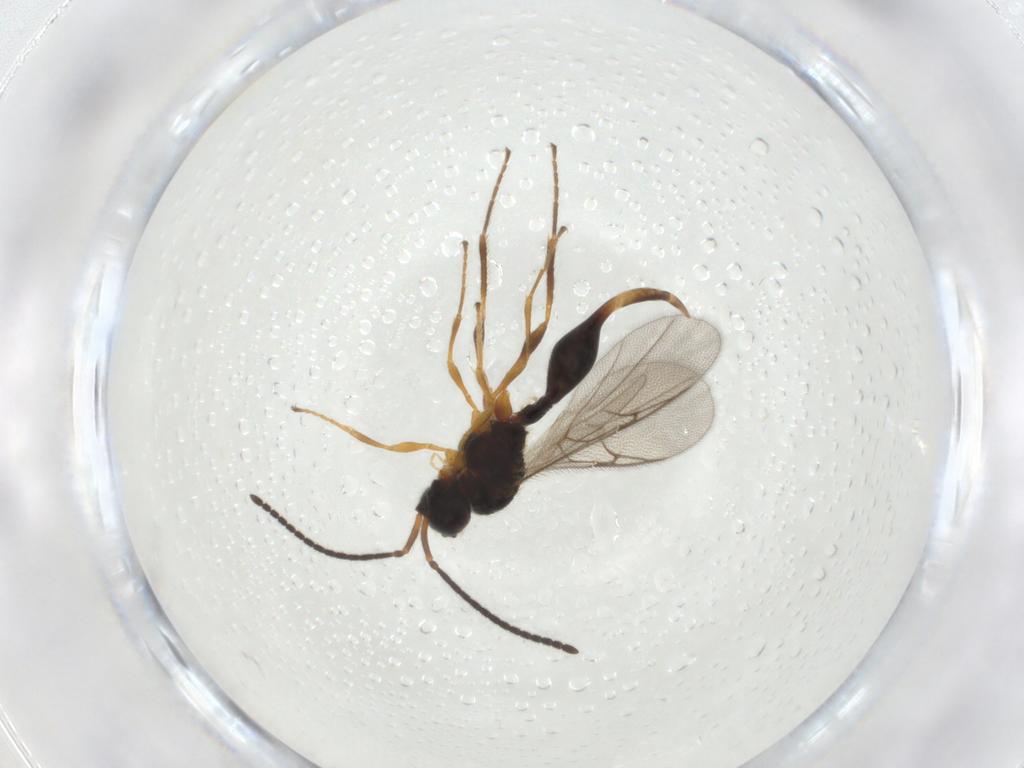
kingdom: Animalia
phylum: Arthropoda
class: Insecta
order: Hymenoptera
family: Diapriidae
